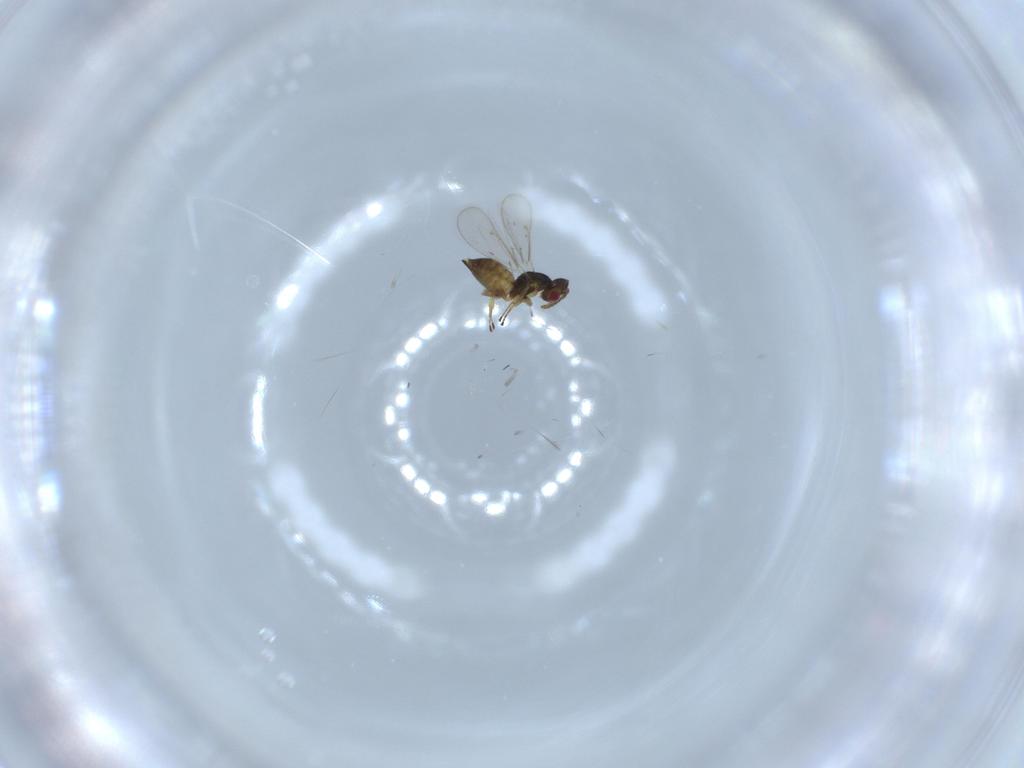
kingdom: Animalia
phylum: Arthropoda
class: Insecta
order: Hymenoptera
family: Eulophidae
